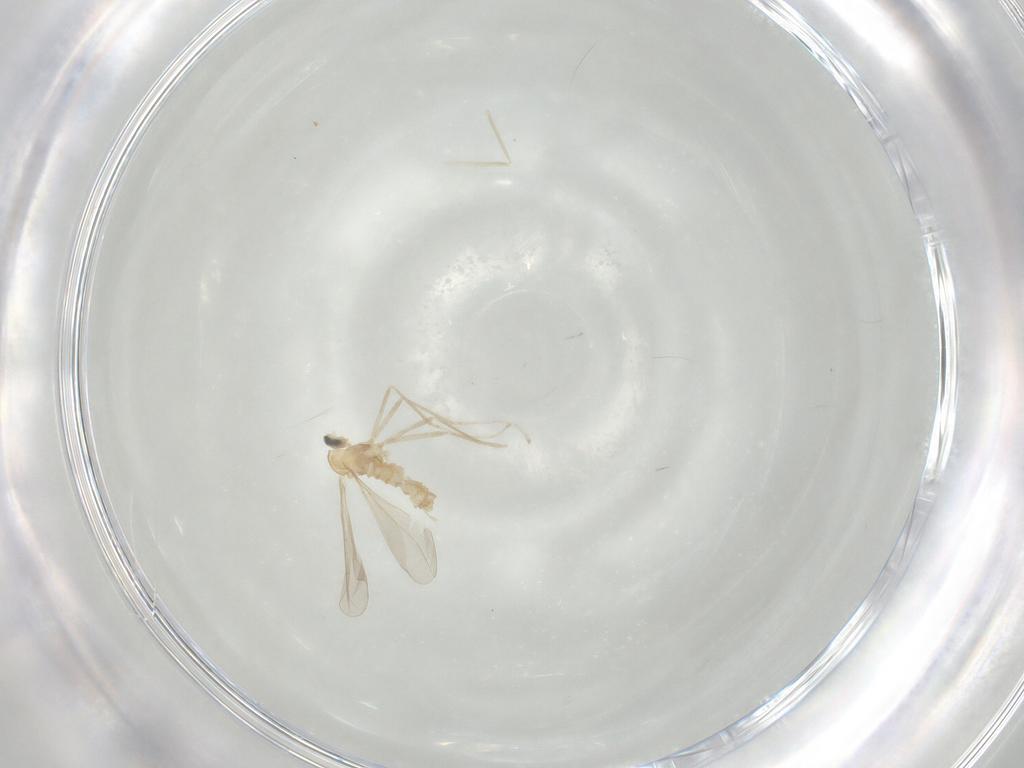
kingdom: Animalia
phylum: Arthropoda
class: Insecta
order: Diptera
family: Cecidomyiidae
